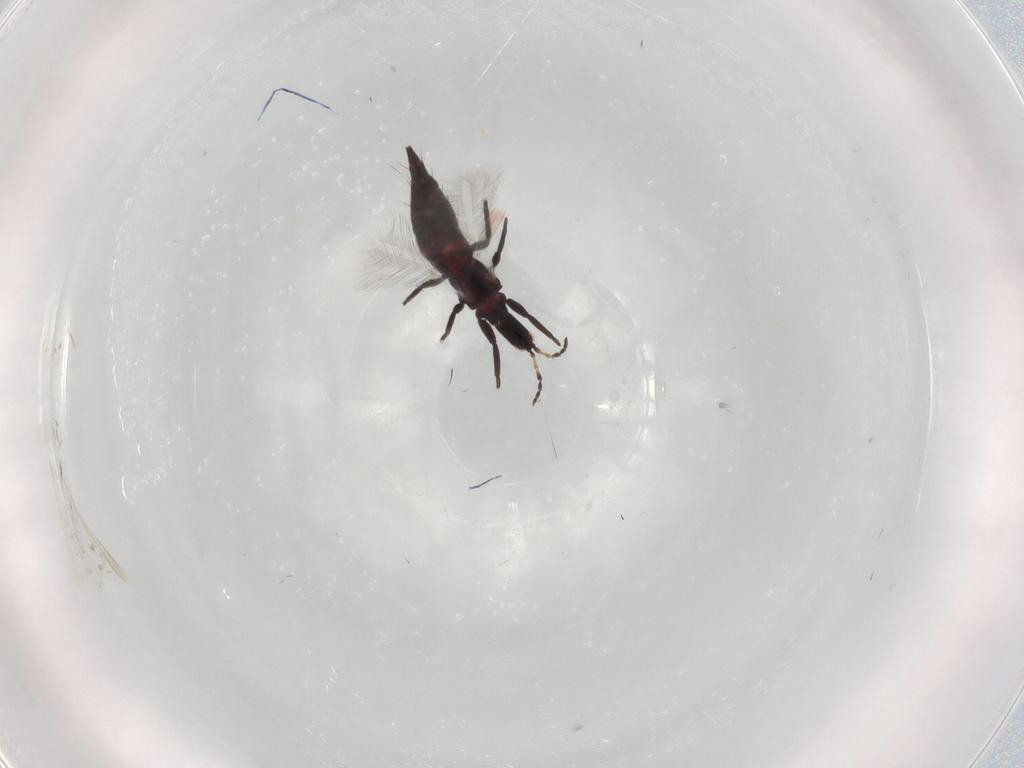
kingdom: Animalia
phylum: Arthropoda
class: Insecta
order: Thysanoptera
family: Phlaeothripidae
